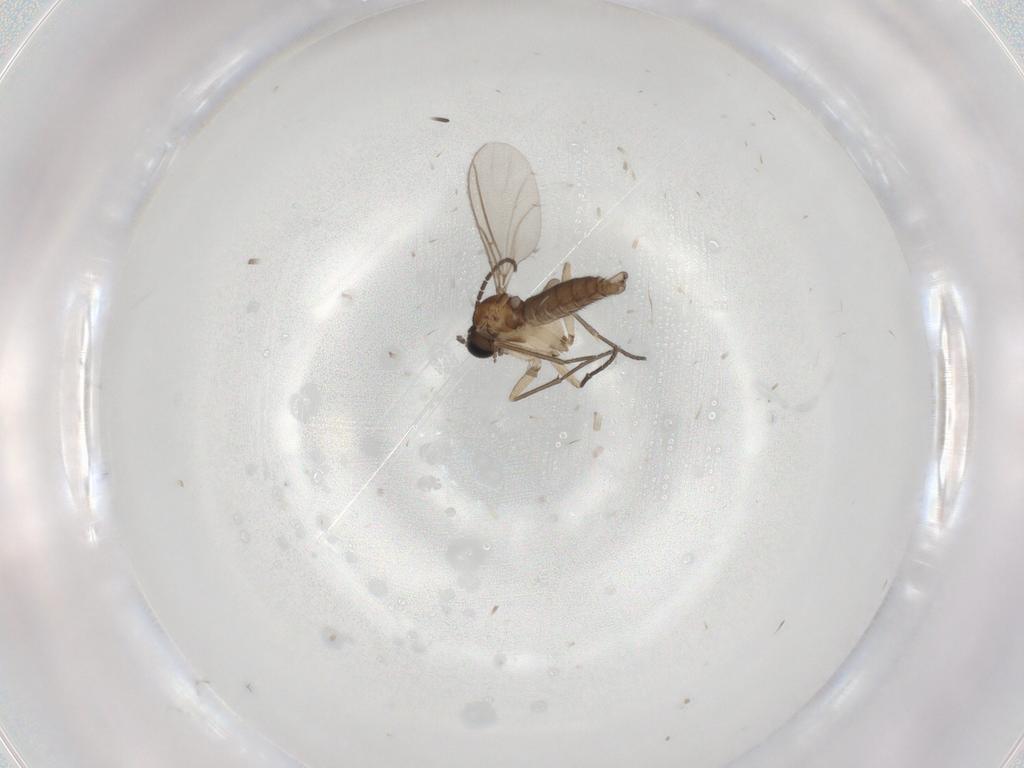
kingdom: Animalia
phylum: Arthropoda
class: Insecta
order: Diptera
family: Sciaridae
